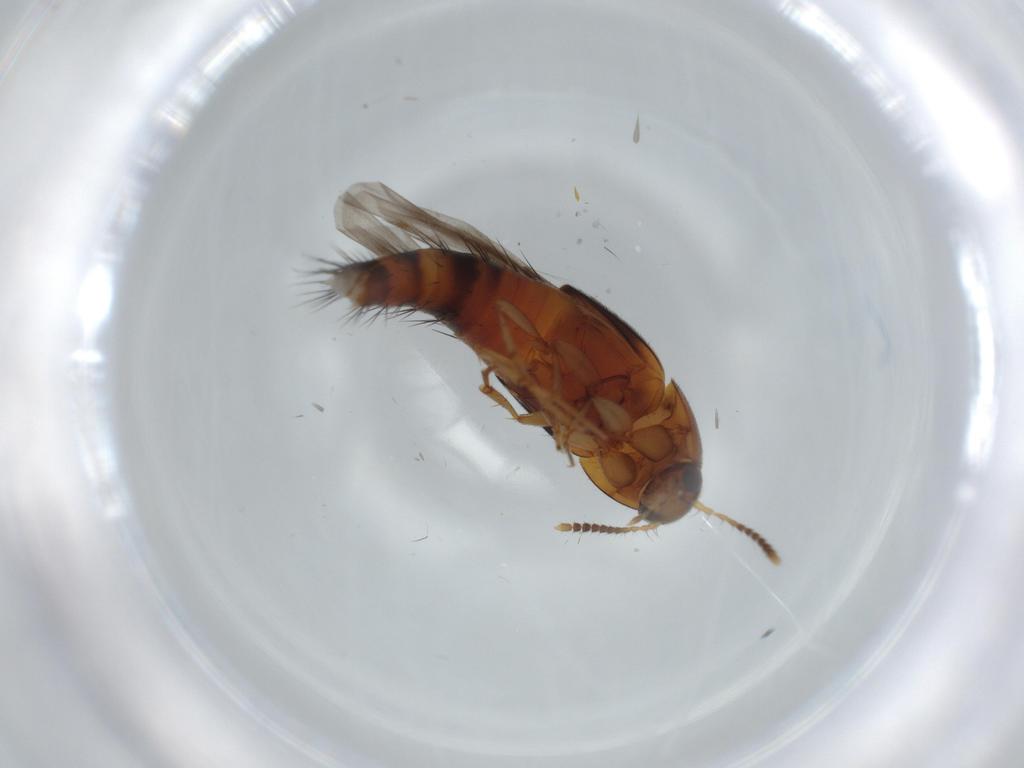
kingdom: Animalia
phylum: Arthropoda
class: Insecta
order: Coleoptera
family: Staphylinidae
